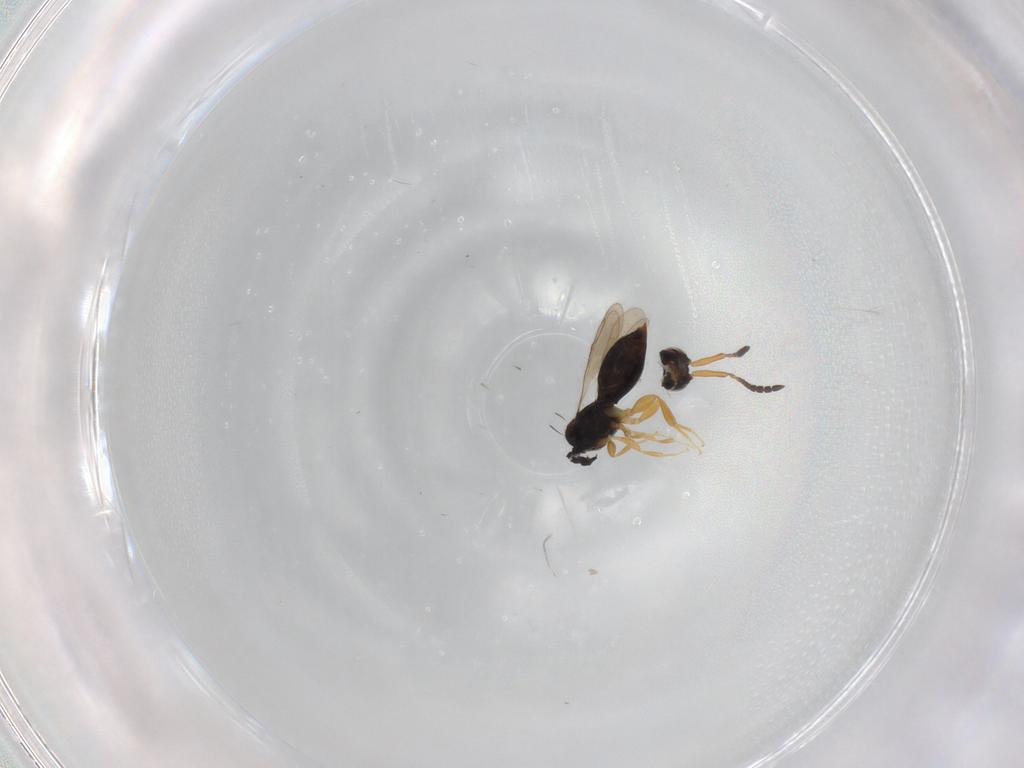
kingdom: Animalia
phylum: Arthropoda
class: Insecta
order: Hymenoptera
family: Ceraphronidae
